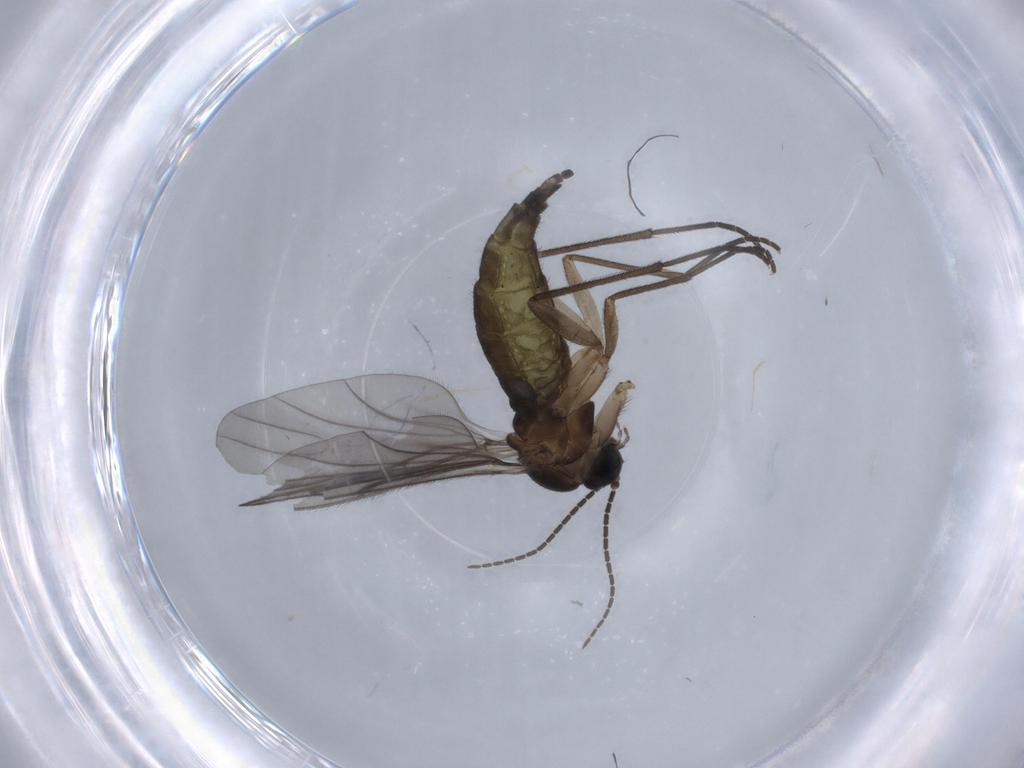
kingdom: Animalia
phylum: Arthropoda
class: Insecta
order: Diptera
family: Sciaridae
